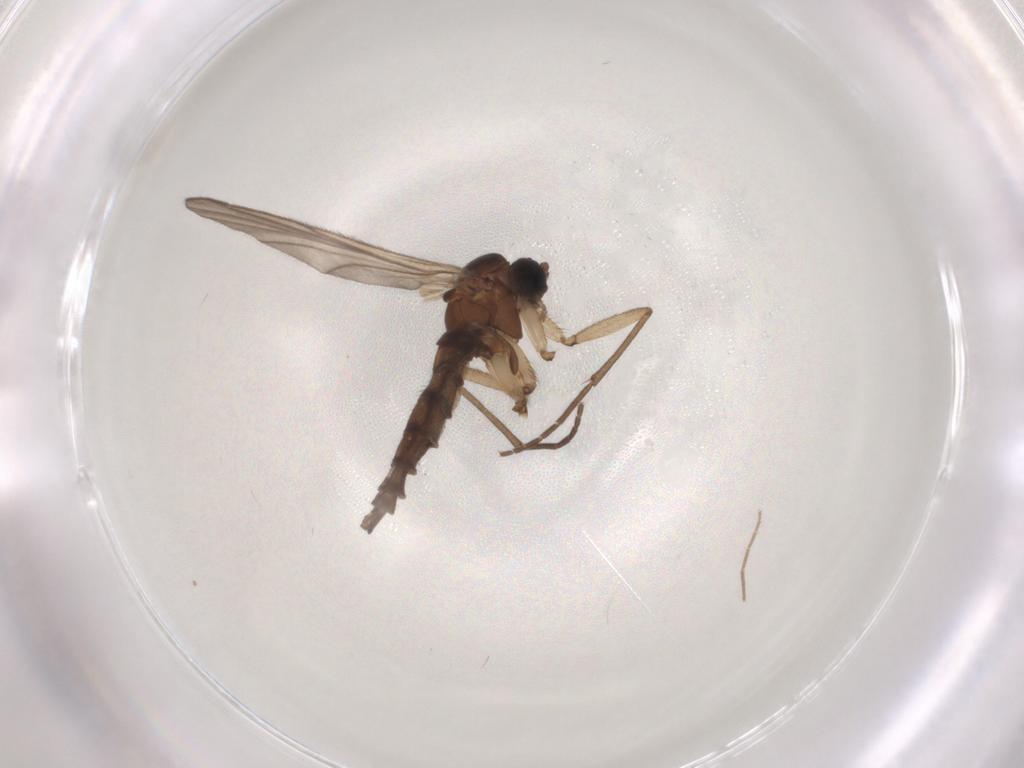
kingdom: Animalia
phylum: Arthropoda
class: Insecta
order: Diptera
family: Sciaridae
